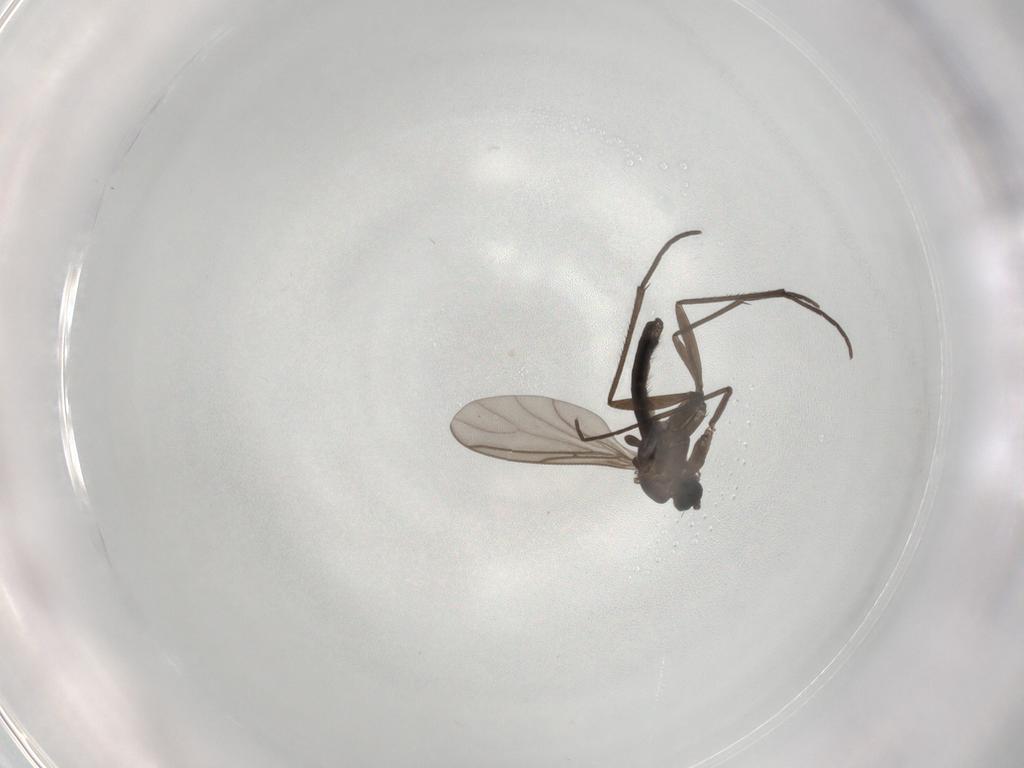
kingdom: Animalia
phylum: Arthropoda
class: Insecta
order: Diptera
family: Sciaridae
